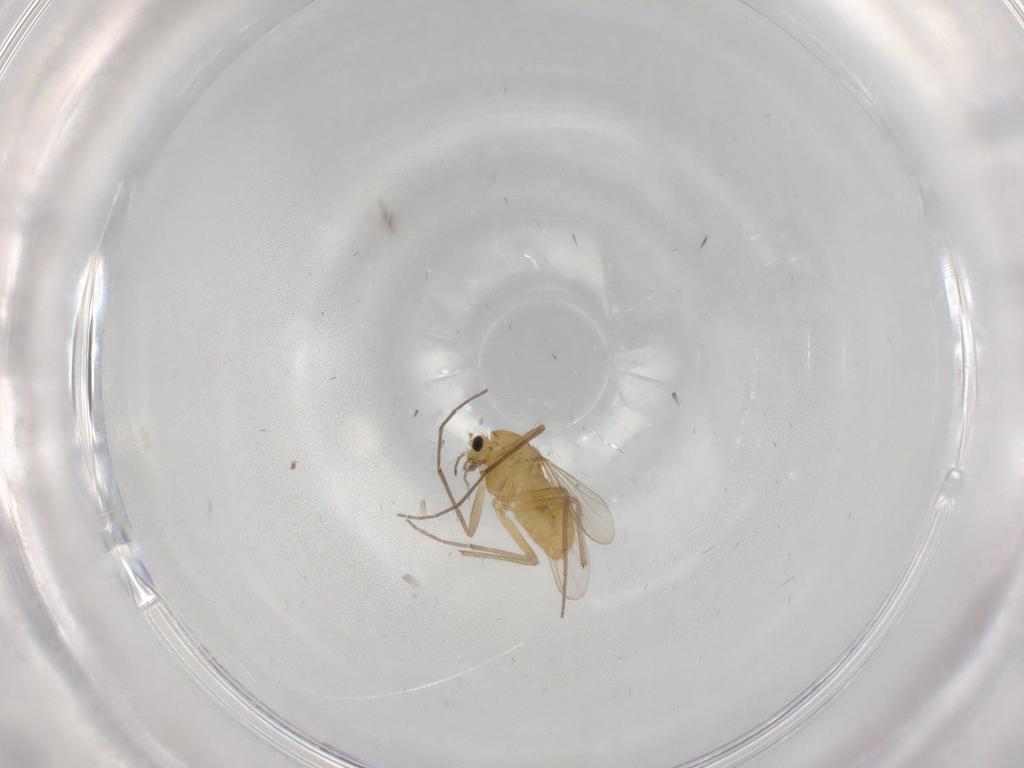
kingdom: Animalia
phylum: Arthropoda
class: Insecta
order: Diptera
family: Chironomidae
